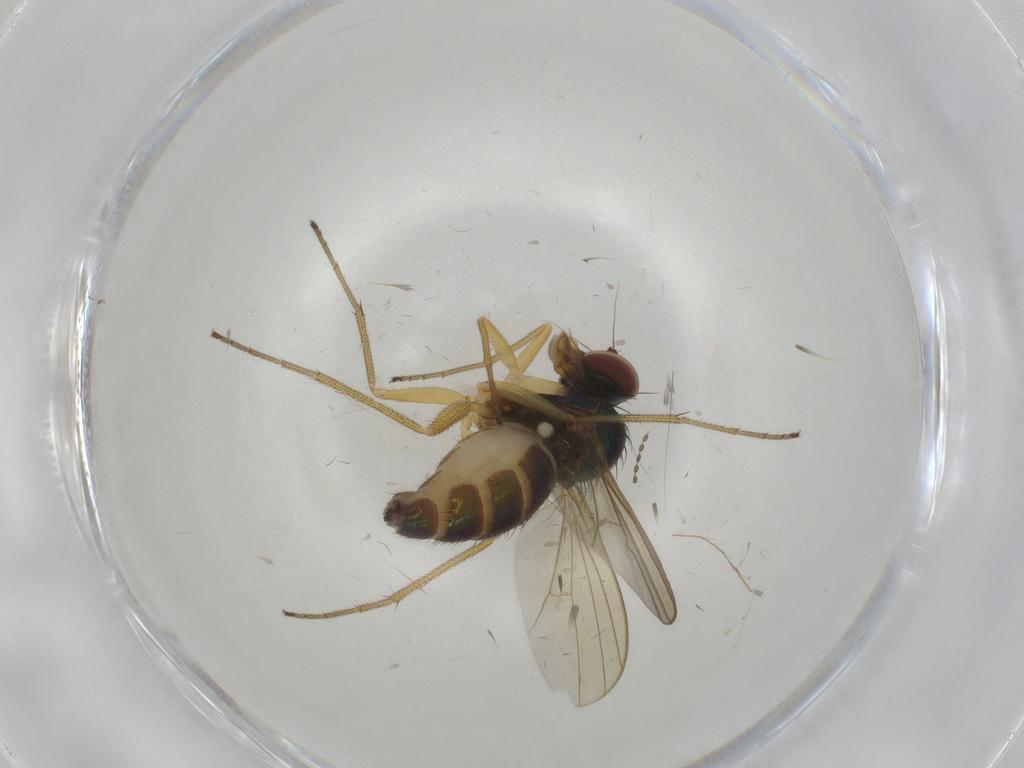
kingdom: Animalia
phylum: Arthropoda
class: Insecta
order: Diptera
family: Dolichopodidae
